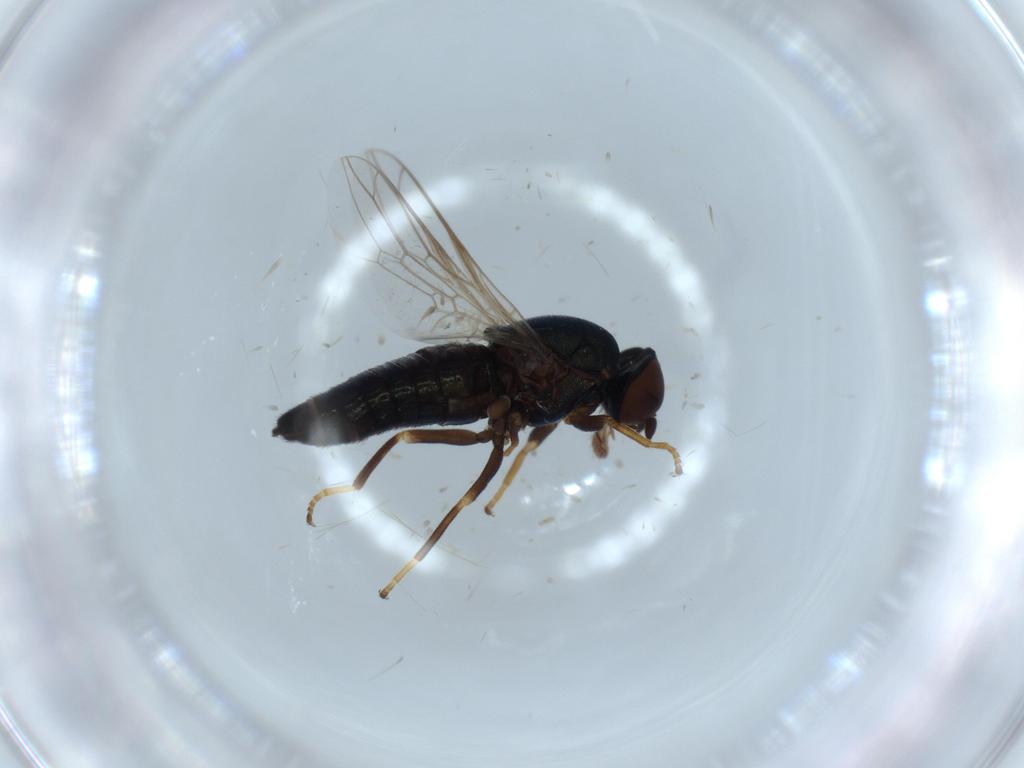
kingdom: Animalia
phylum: Arthropoda
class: Insecta
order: Diptera
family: Scenopinidae
